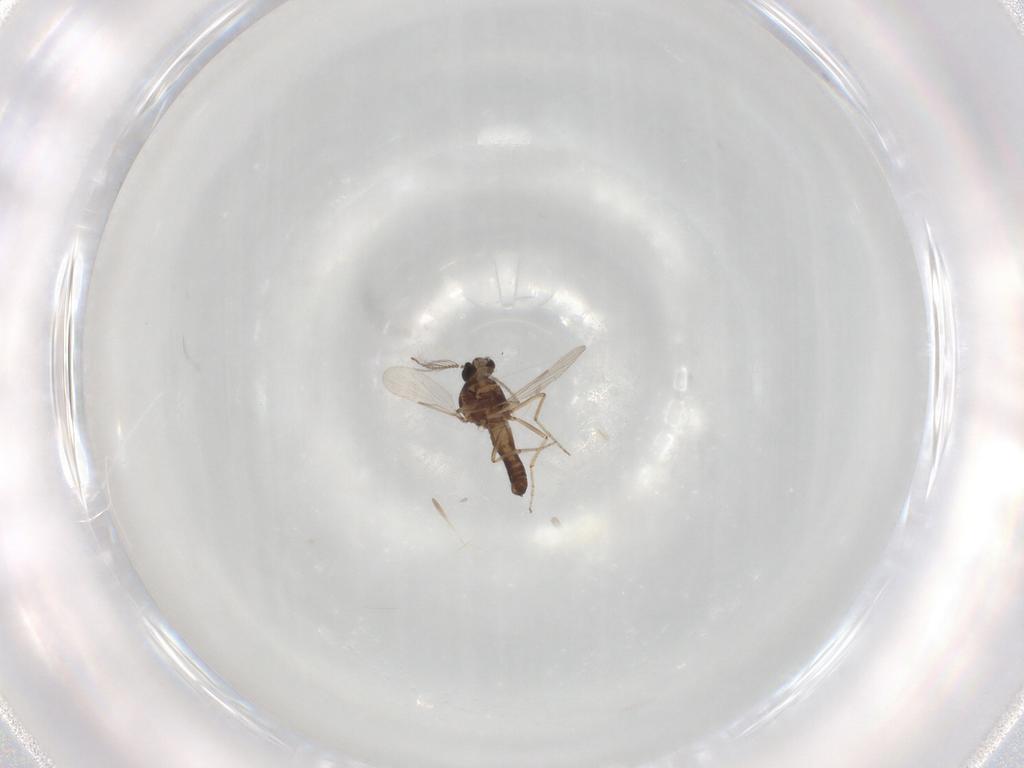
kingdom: Animalia
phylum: Arthropoda
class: Insecta
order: Diptera
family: Ceratopogonidae
